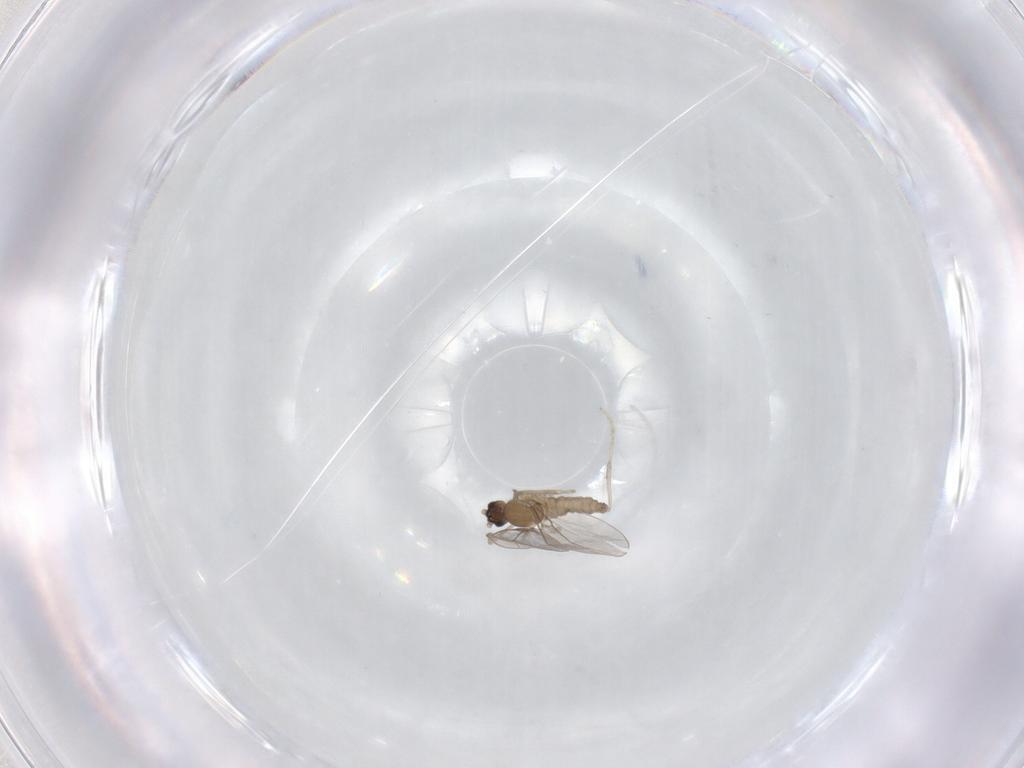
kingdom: Animalia
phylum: Arthropoda
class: Insecta
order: Diptera
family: Cecidomyiidae
